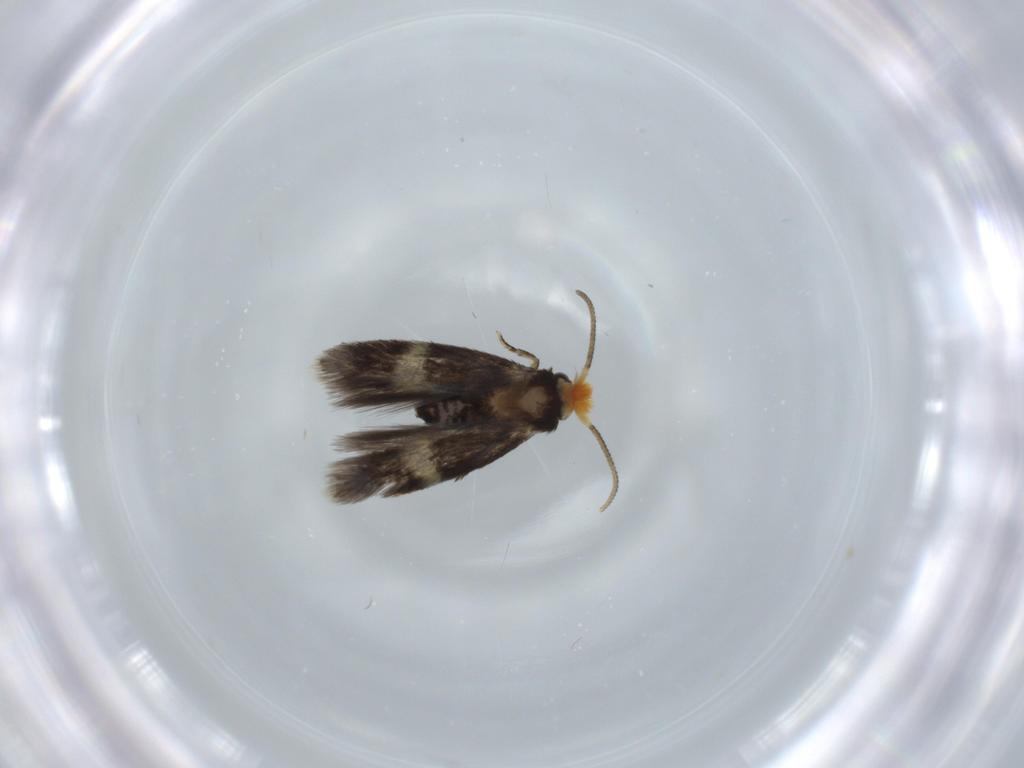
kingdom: Animalia
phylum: Arthropoda
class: Insecta
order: Lepidoptera
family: Nepticulidae
